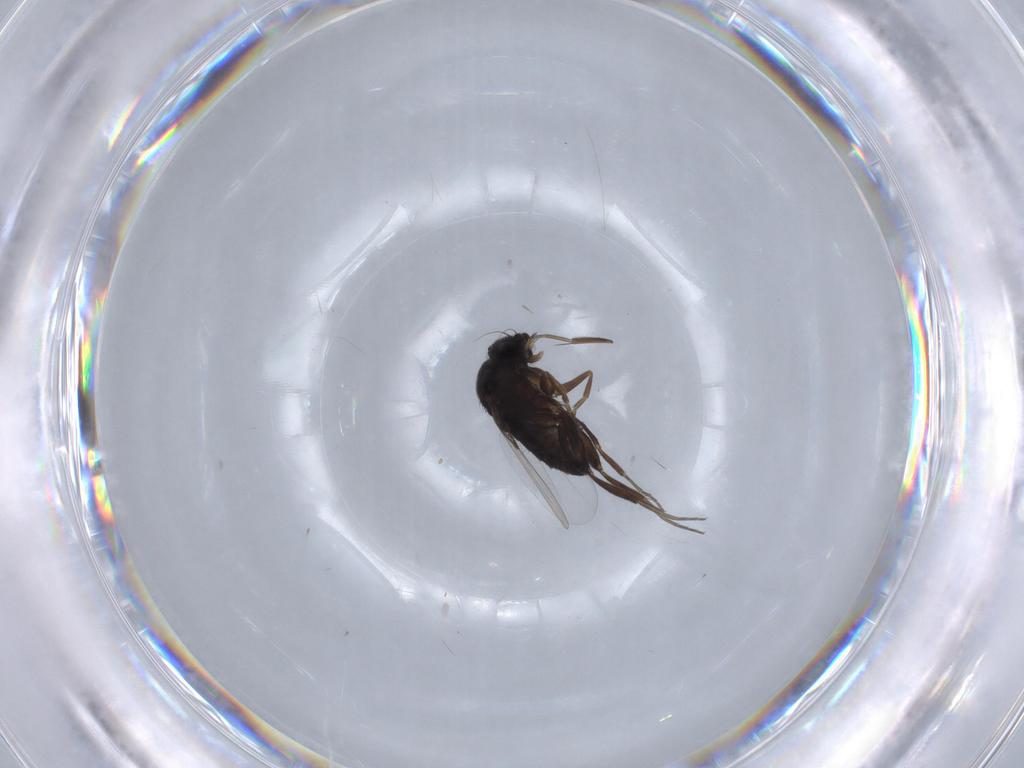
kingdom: Animalia
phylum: Arthropoda
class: Insecta
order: Diptera
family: Phoridae
